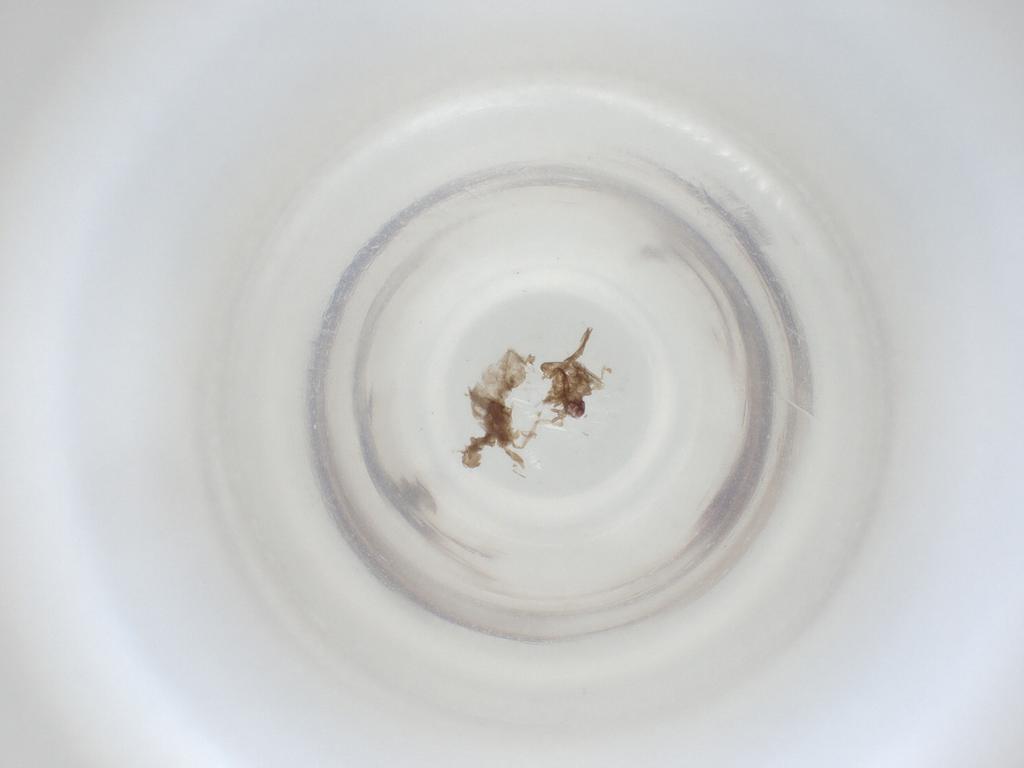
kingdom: Animalia
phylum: Arthropoda
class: Insecta
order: Diptera
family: Cecidomyiidae
